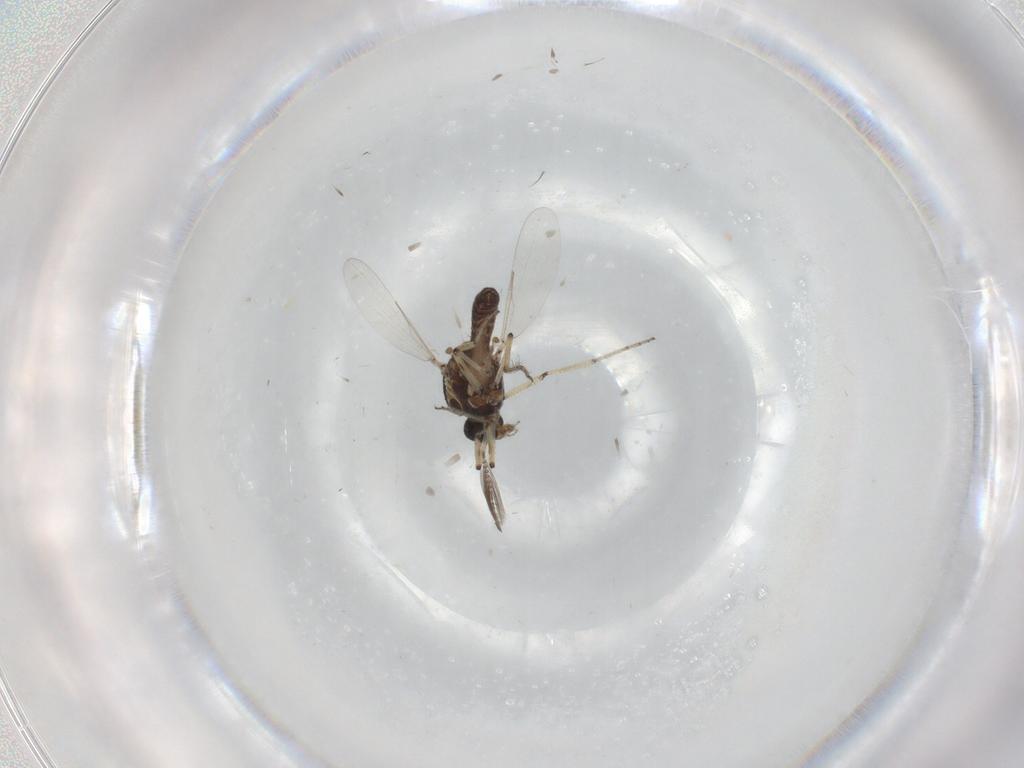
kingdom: Animalia
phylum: Arthropoda
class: Insecta
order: Diptera
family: Ceratopogonidae
